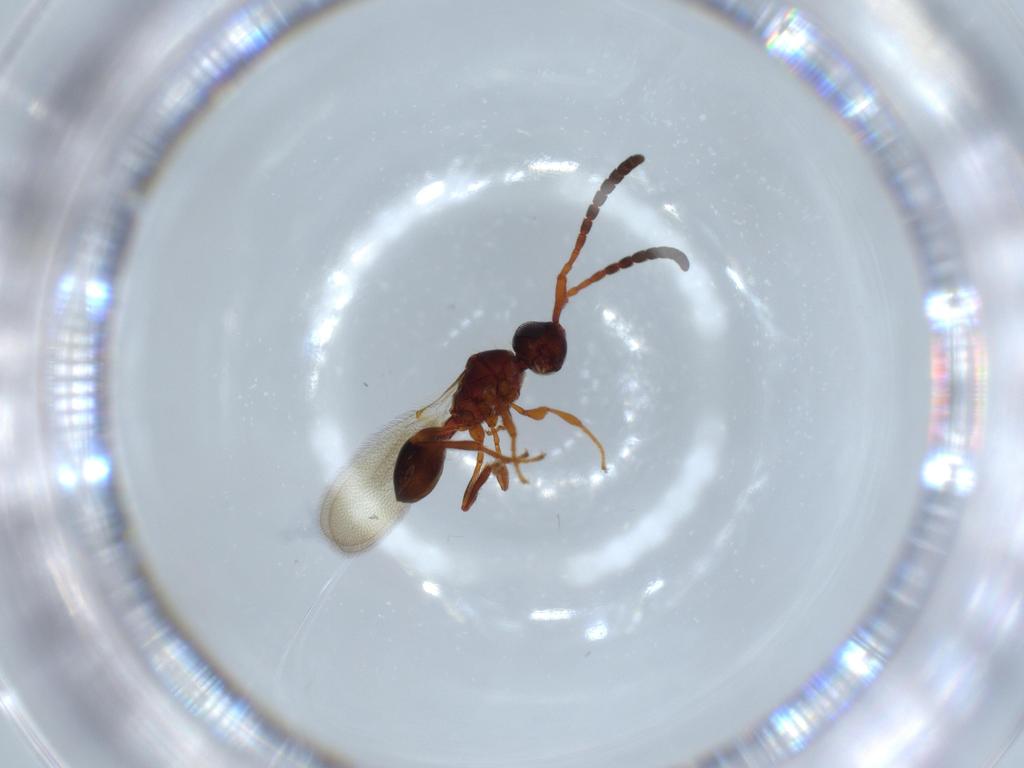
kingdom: Animalia
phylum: Arthropoda
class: Insecta
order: Hymenoptera
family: Diapriidae
